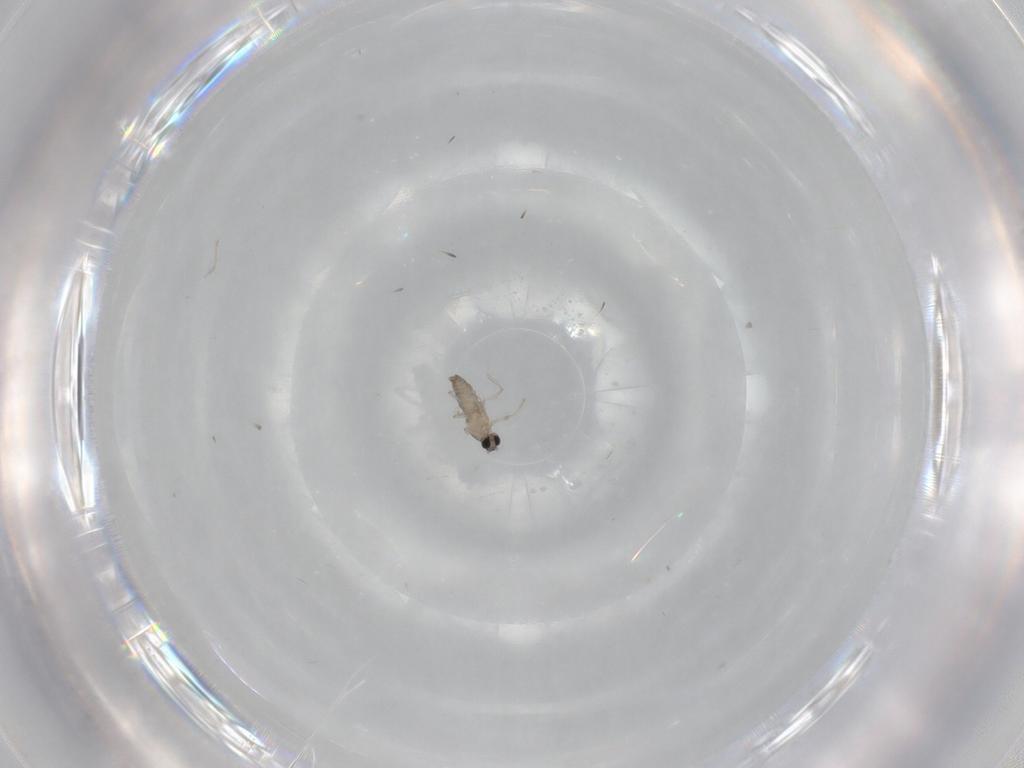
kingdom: Animalia
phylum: Arthropoda
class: Insecta
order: Diptera
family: Cecidomyiidae
